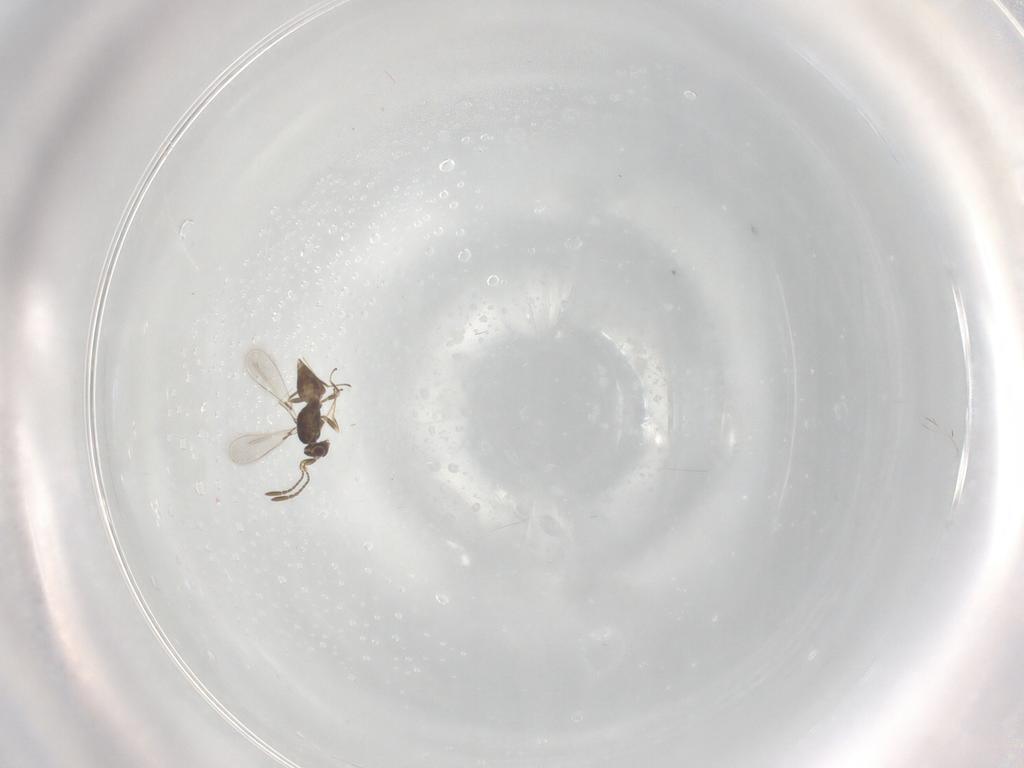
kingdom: Animalia
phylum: Arthropoda
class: Insecta
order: Hymenoptera
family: Mymaridae
